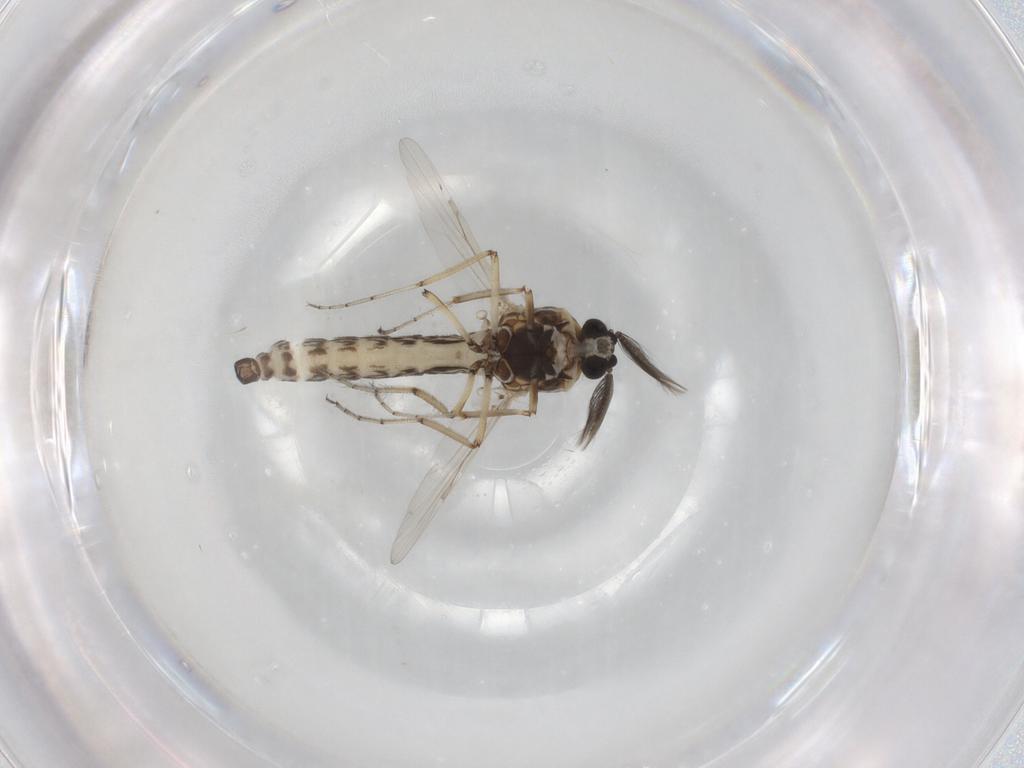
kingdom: Animalia
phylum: Arthropoda
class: Insecta
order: Diptera
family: Ceratopogonidae
